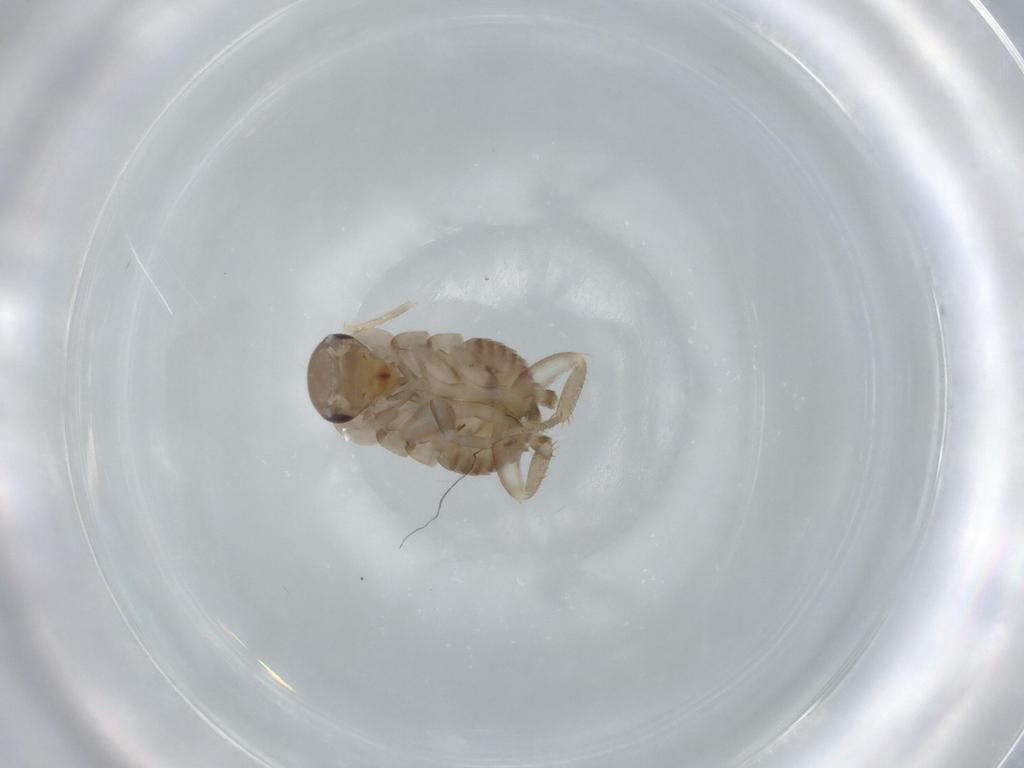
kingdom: Animalia
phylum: Arthropoda
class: Insecta
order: Blattodea
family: Ectobiidae
